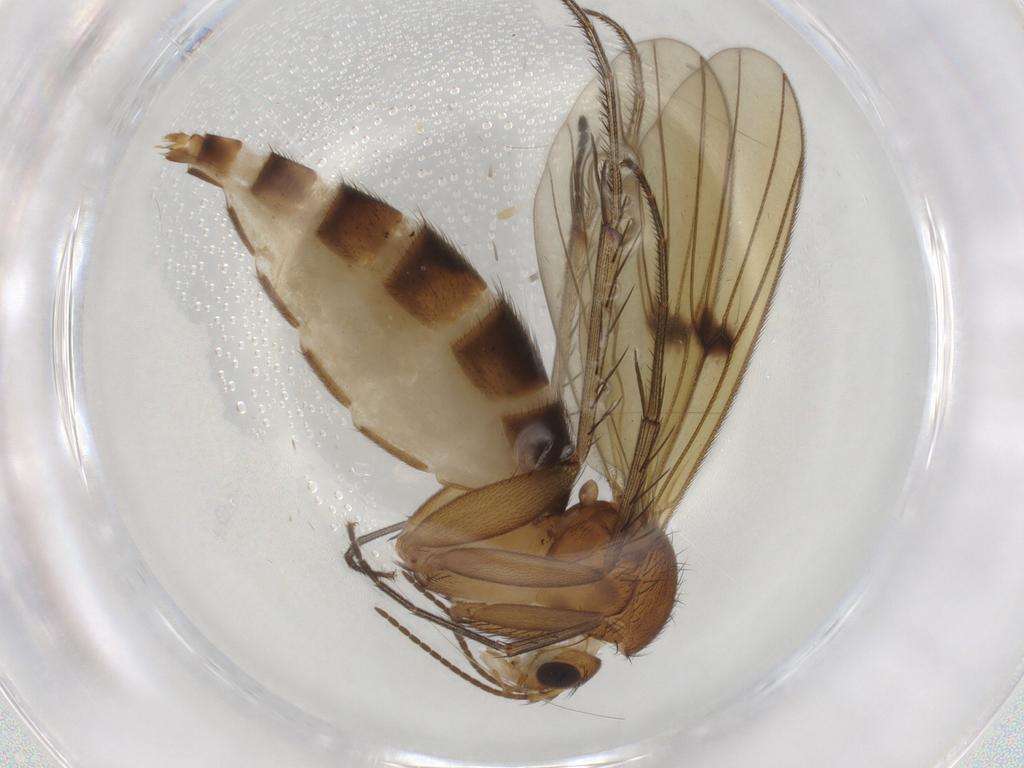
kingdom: Animalia
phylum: Arthropoda
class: Insecta
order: Diptera
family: Mycetophilidae
